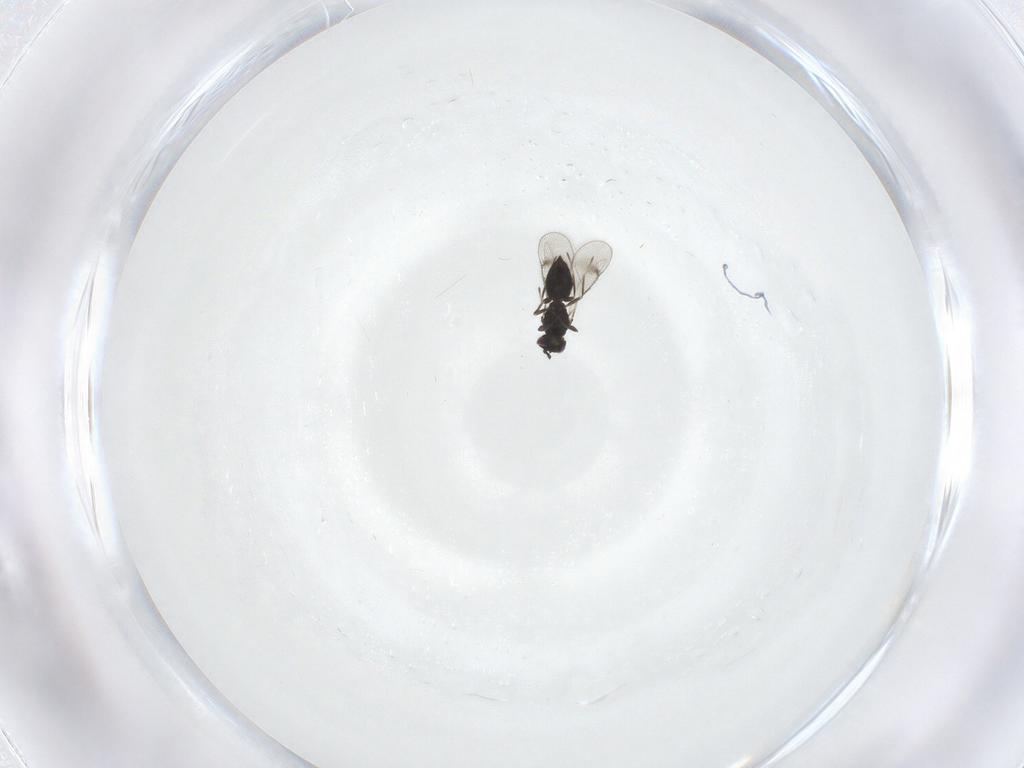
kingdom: Animalia
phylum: Arthropoda
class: Insecta
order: Hymenoptera
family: Eulophidae
